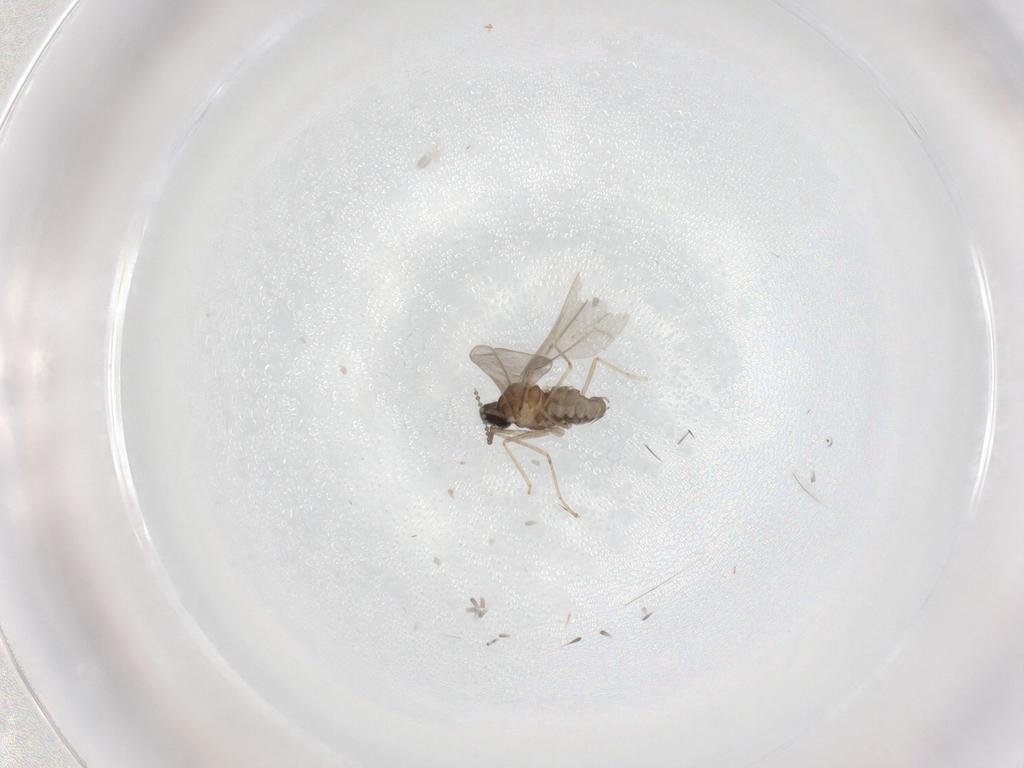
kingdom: Animalia
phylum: Arthropoda
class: Insecta
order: Diptera
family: Cecidomyiidae
